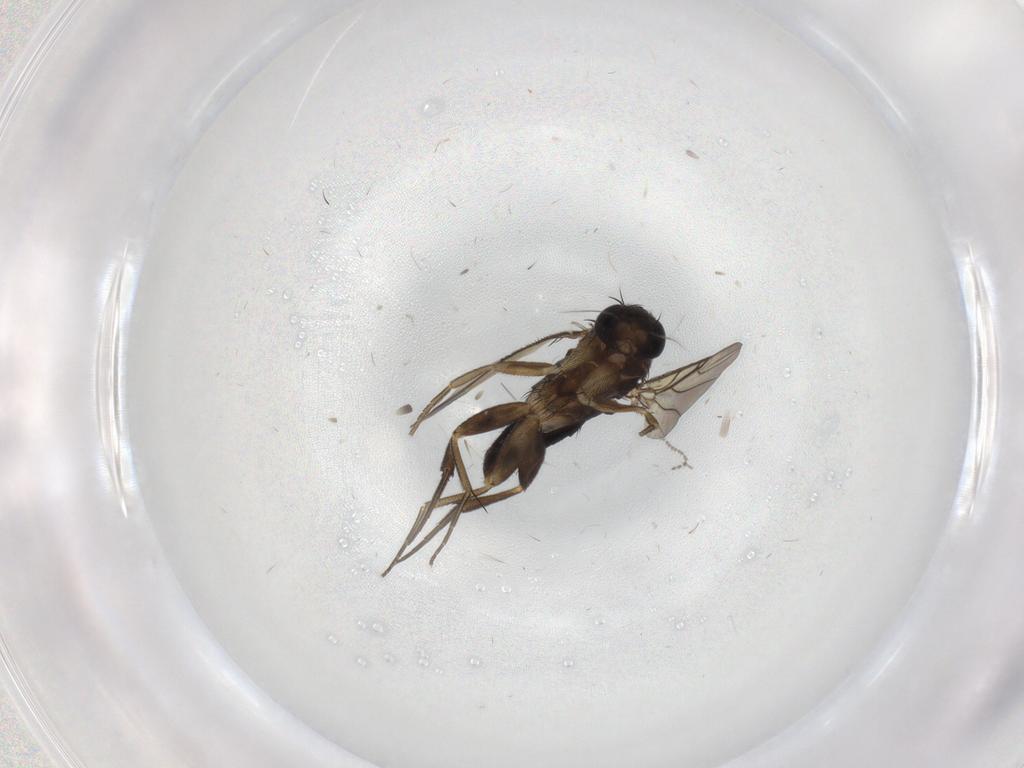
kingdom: Animalia
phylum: Arthropoda
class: Insecta
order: Diptera
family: Phoridae
